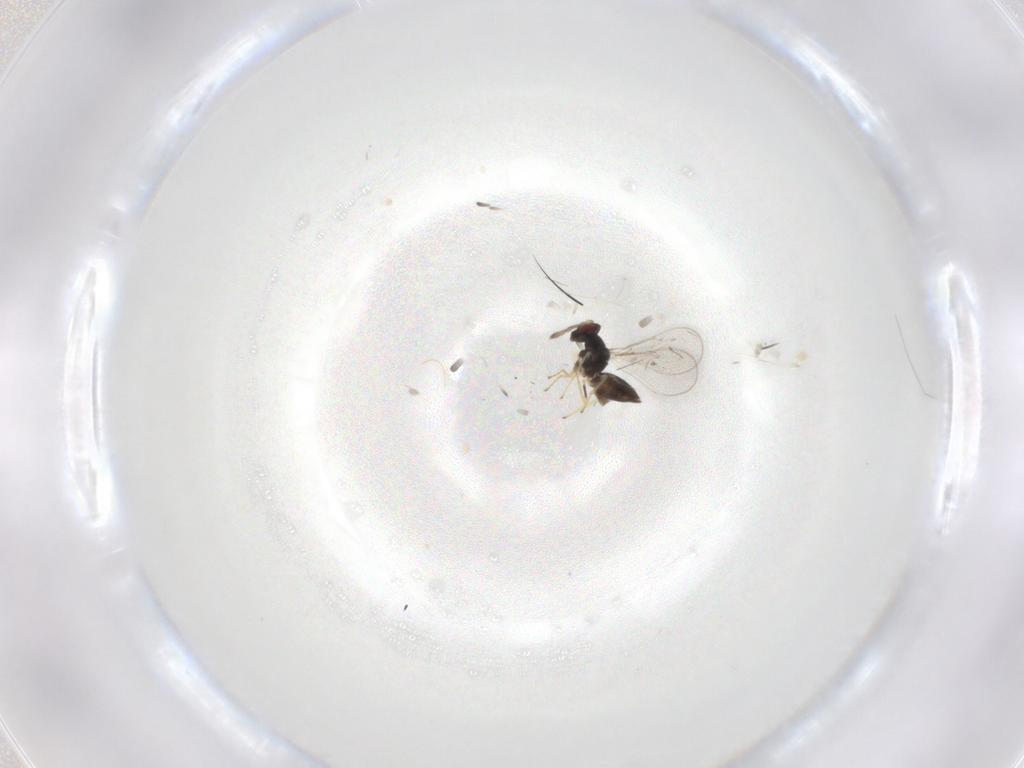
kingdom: Animalia
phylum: Arthropoda
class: Insecta
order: Hymenoptera
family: Eulophidae
